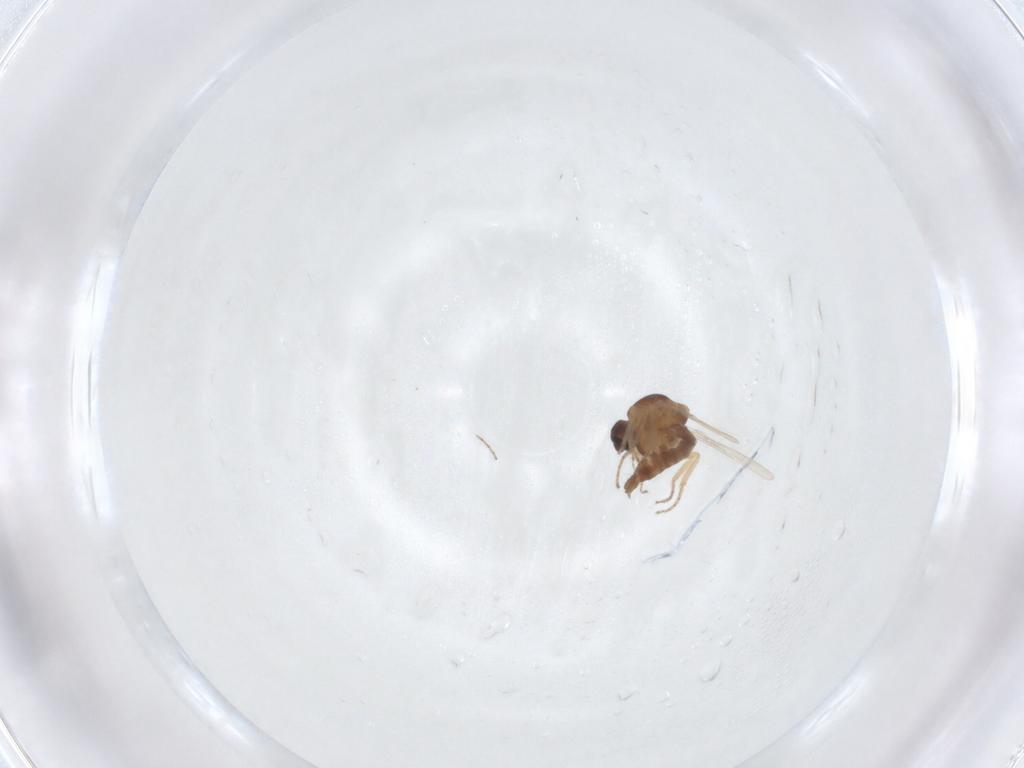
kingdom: Animalia
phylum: Arthropoda
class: Insecta
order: Diptera
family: Ceratopogonidae
